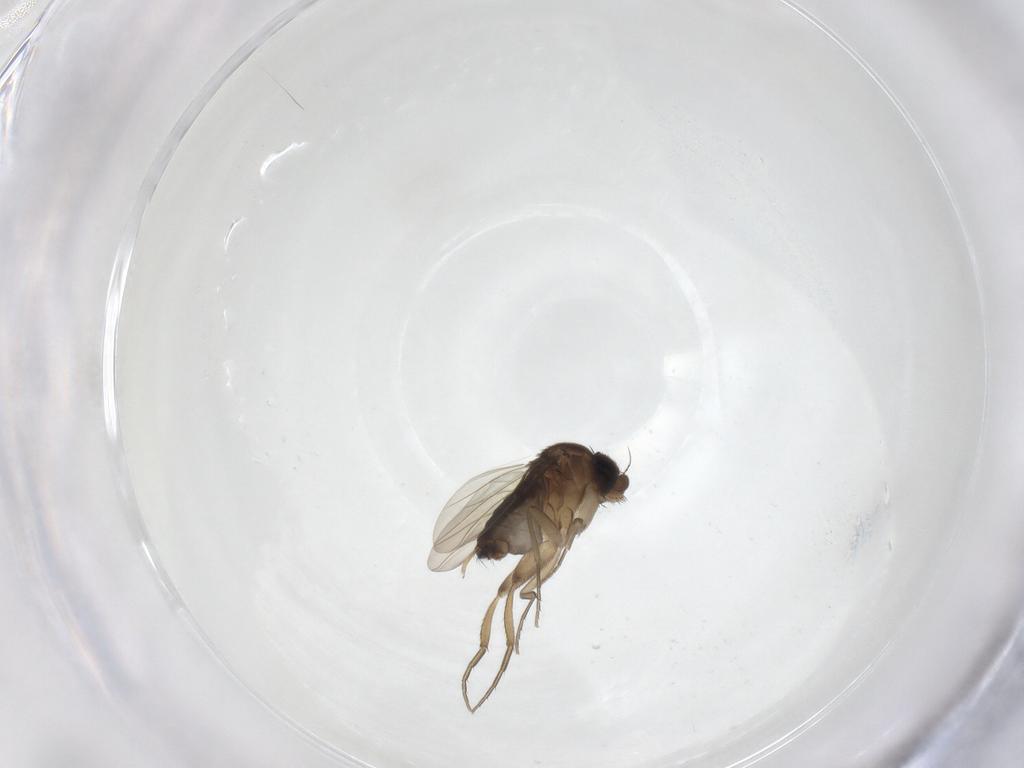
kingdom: Animalia
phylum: Arthropoda
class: Insecta
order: Diptera
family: Phoridae
